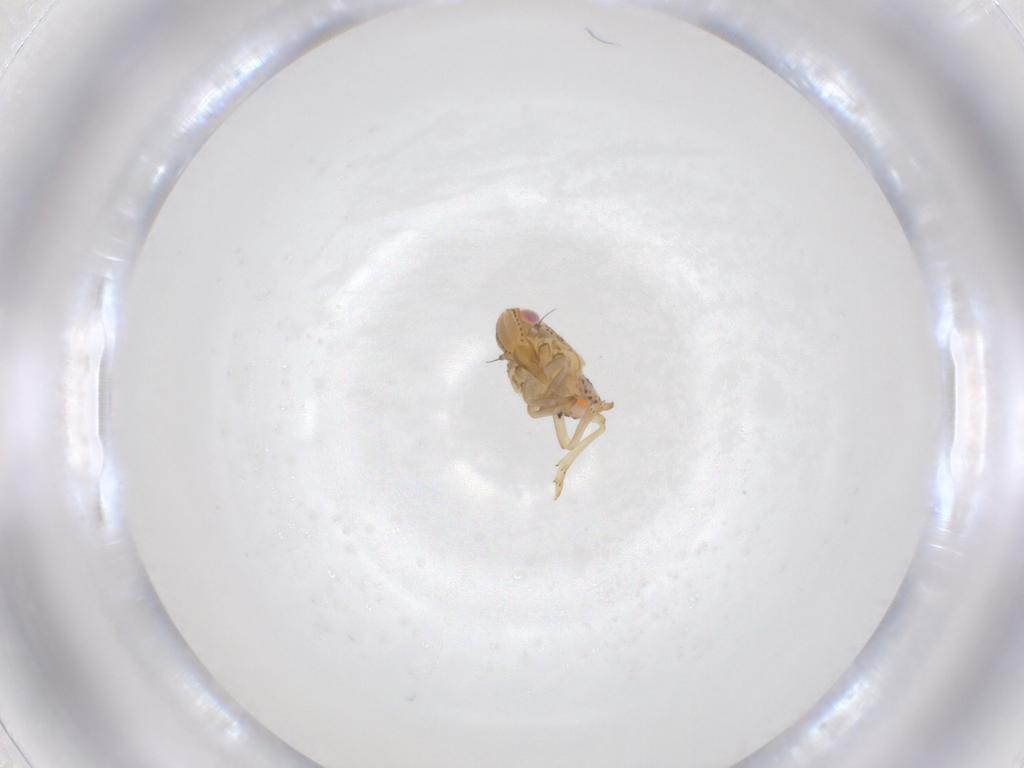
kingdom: Animalia
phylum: Arthropoda
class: Insecta
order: Hemiptera
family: Tropiduchidae
